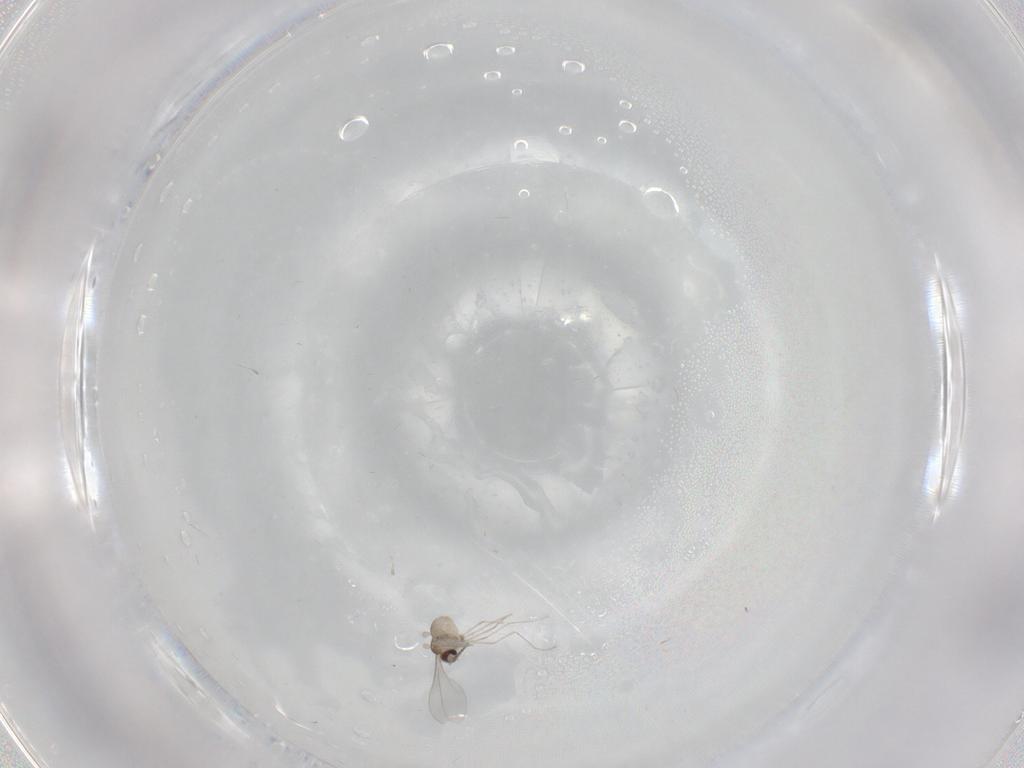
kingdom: Animalia
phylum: Arthropoda
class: Insecta
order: Diptera
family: Cecidomyiidae
